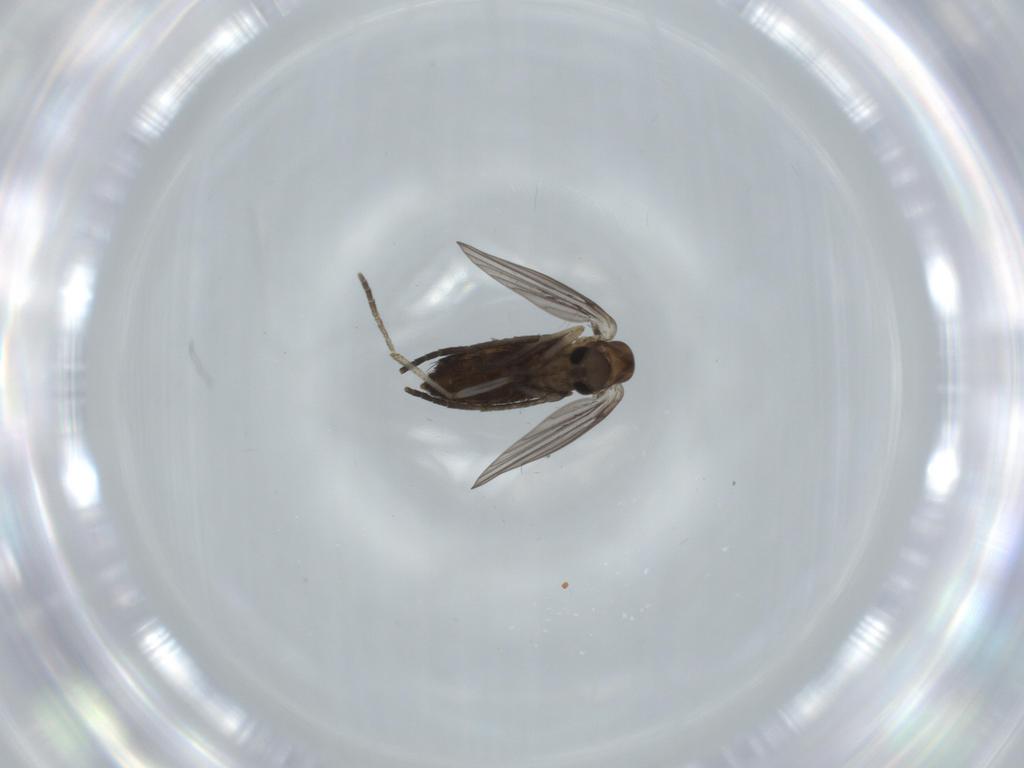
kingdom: Animalia
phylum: Arthropoda
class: Insecta
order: Diptera
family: Psychodidae
